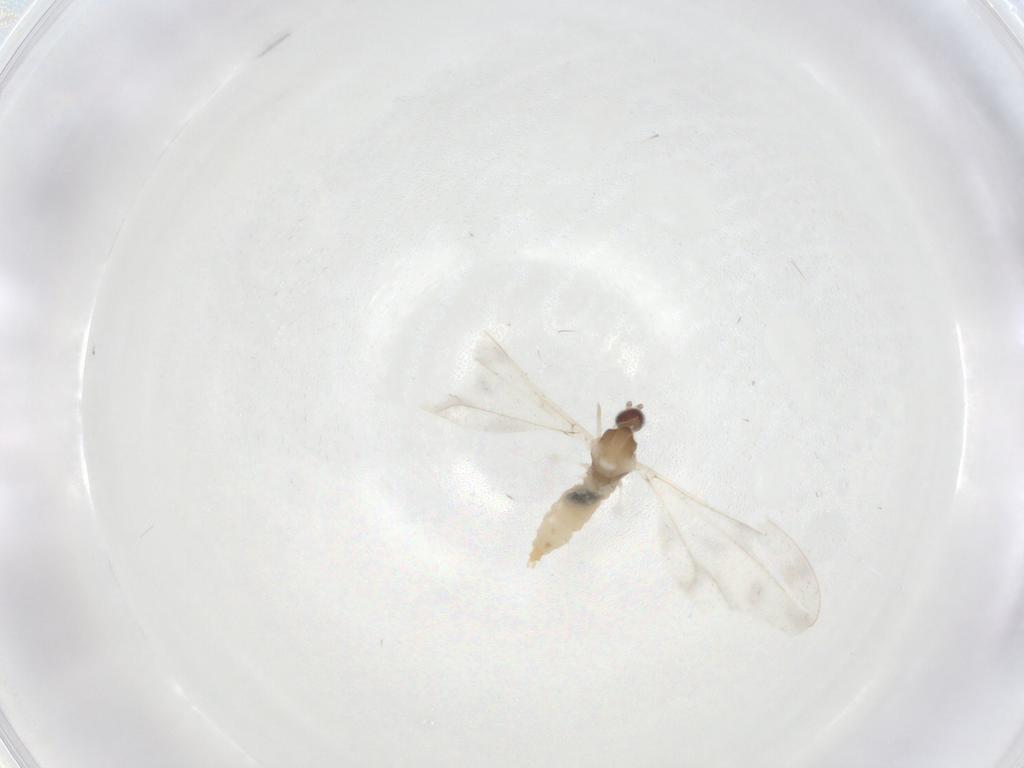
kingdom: Animalia
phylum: Arthropoda
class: Insecta
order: Diptera
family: Cecidomyiidae
